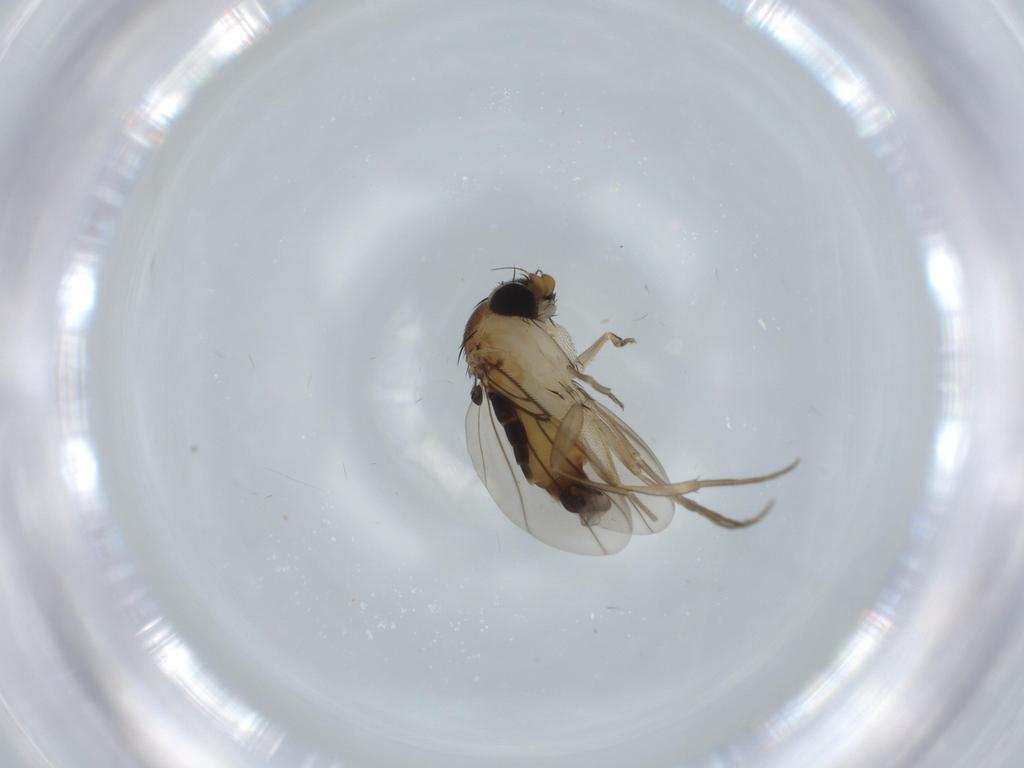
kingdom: Animalia
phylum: Arthropoda
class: Insecta
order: Diptera
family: Phoridae
